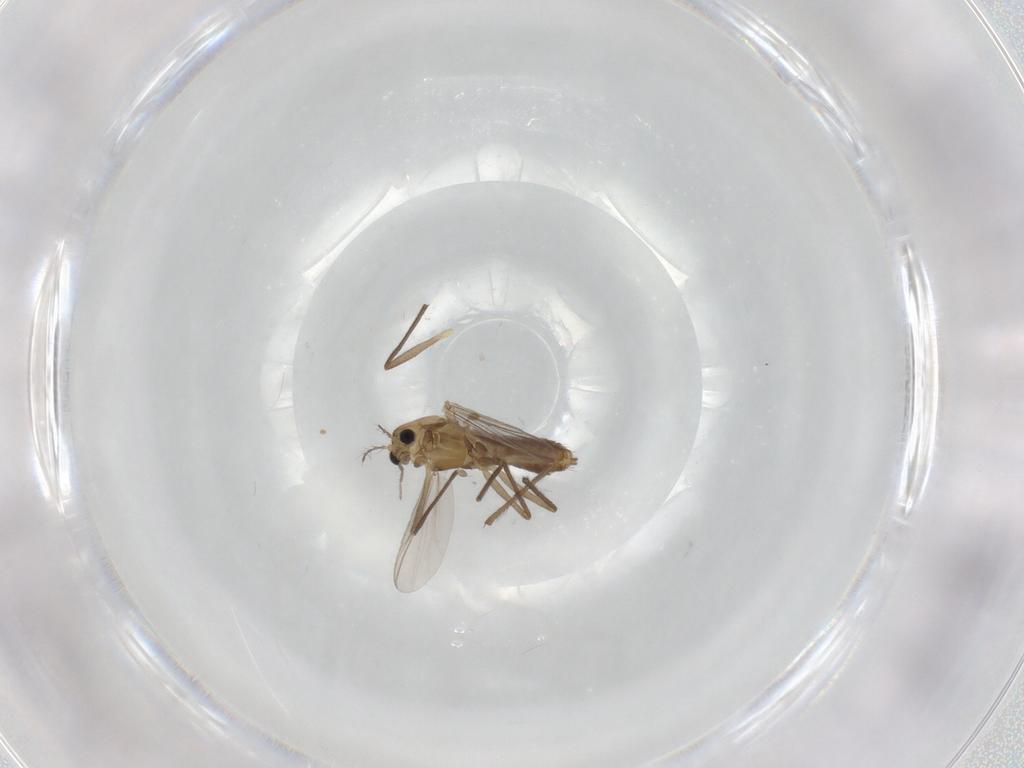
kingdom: Animalia
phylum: Arthropoda
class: Insecta
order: Diptera
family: Chironomidae
